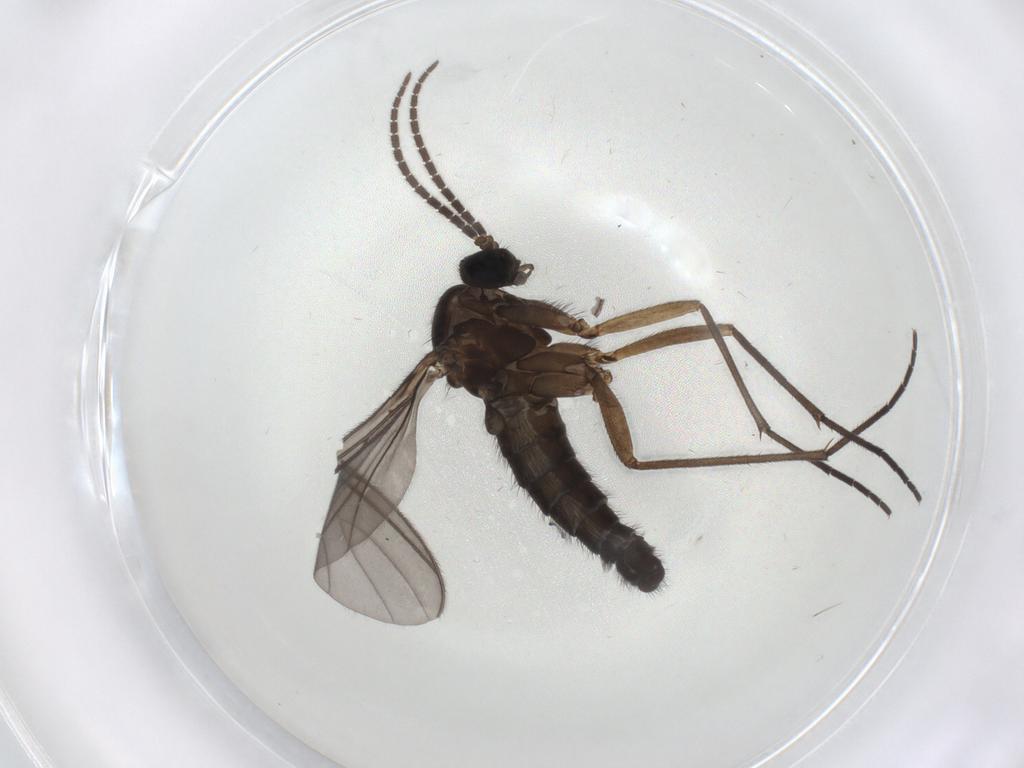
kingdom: Animalia
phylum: Arthropoda
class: Insecta
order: Diptera
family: Sciaridae
